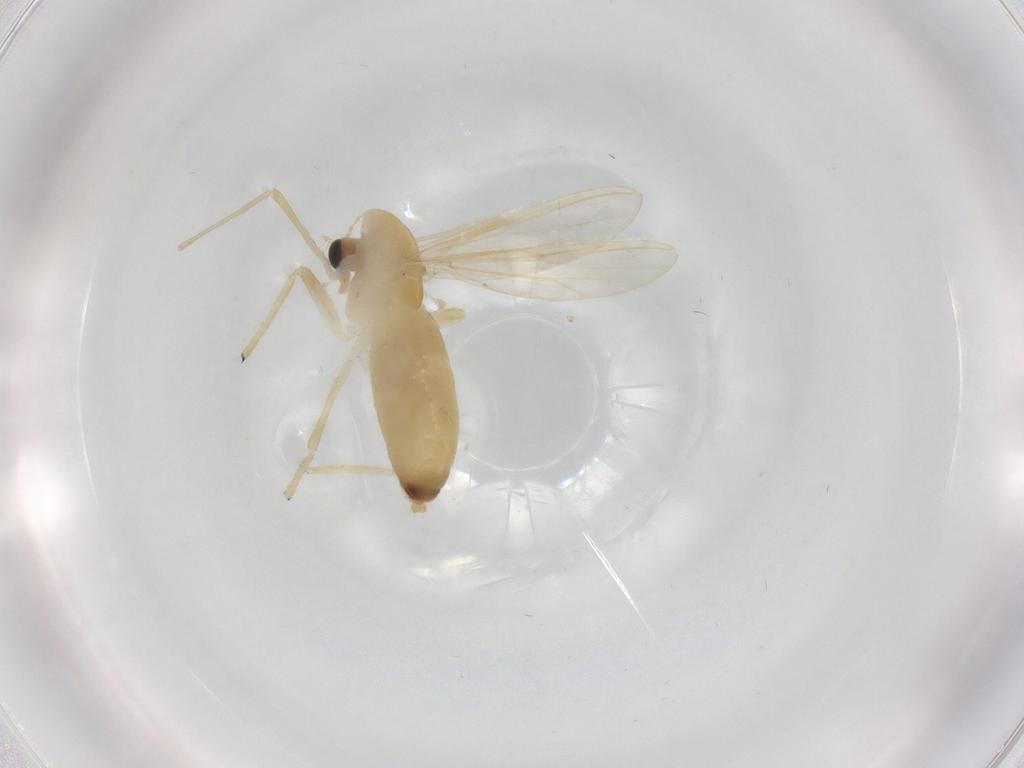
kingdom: Animalia
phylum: Arthropoda
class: Insecta
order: Diptera
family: Chironomidae
